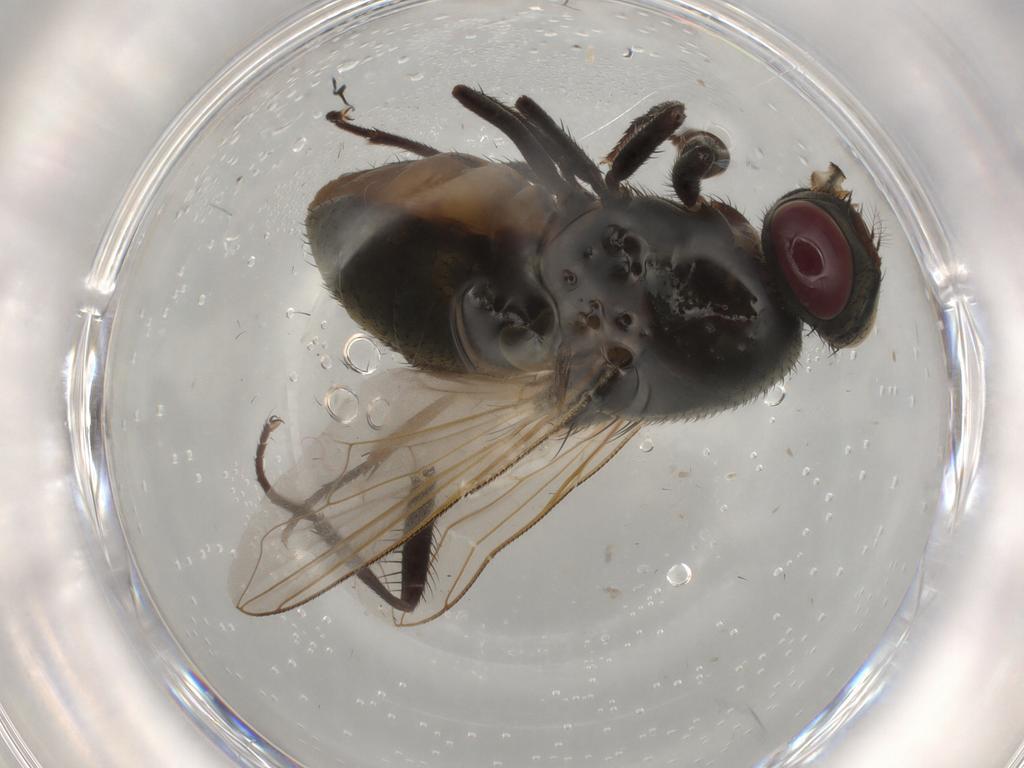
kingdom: Animalia
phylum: Arthropoda
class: Insecta
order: Diptera
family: Muscidae
